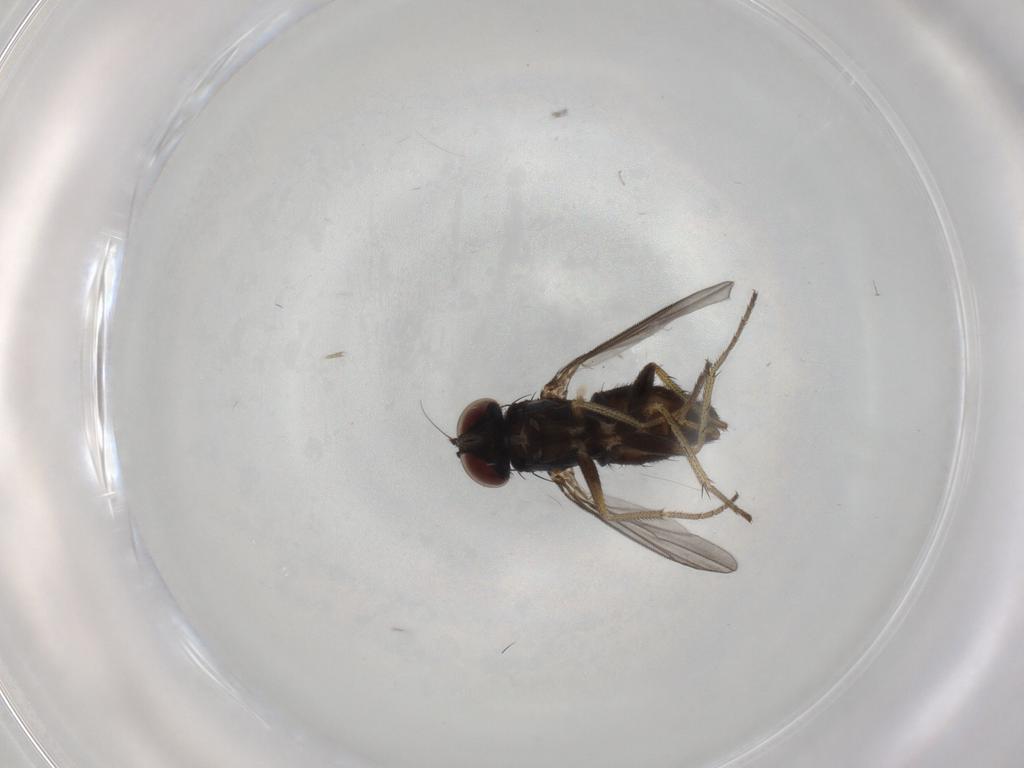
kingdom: Animalia
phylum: Arthropoda
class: Insecta
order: Diptera
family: Dolichopodidae
